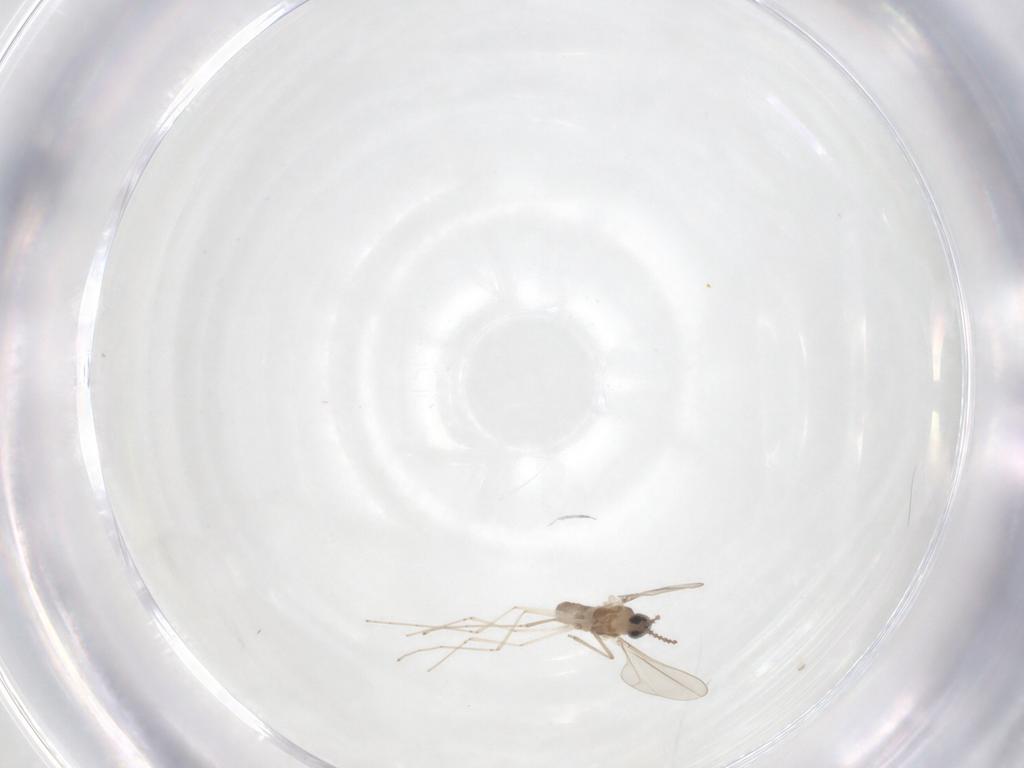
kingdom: Animalia
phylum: Arthropoda
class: Insecta
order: Diptera
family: Cecidomyiidae
